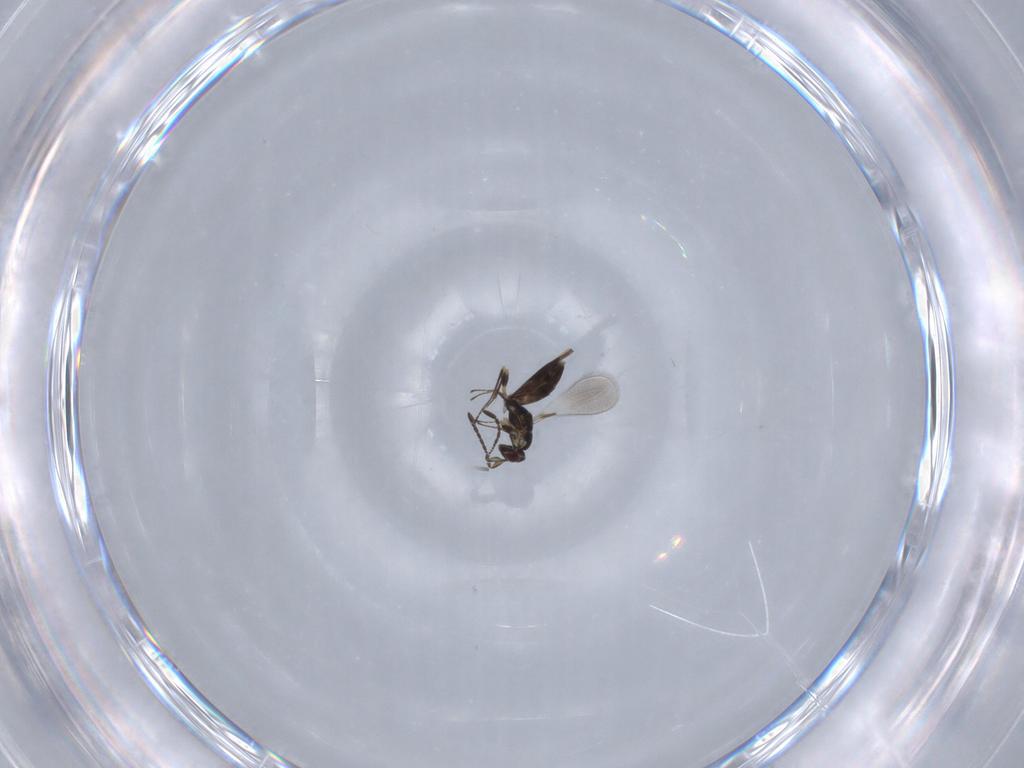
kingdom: Animalia
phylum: Arthropoda
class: Insecta
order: Hymenoptera
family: Mymaridae
